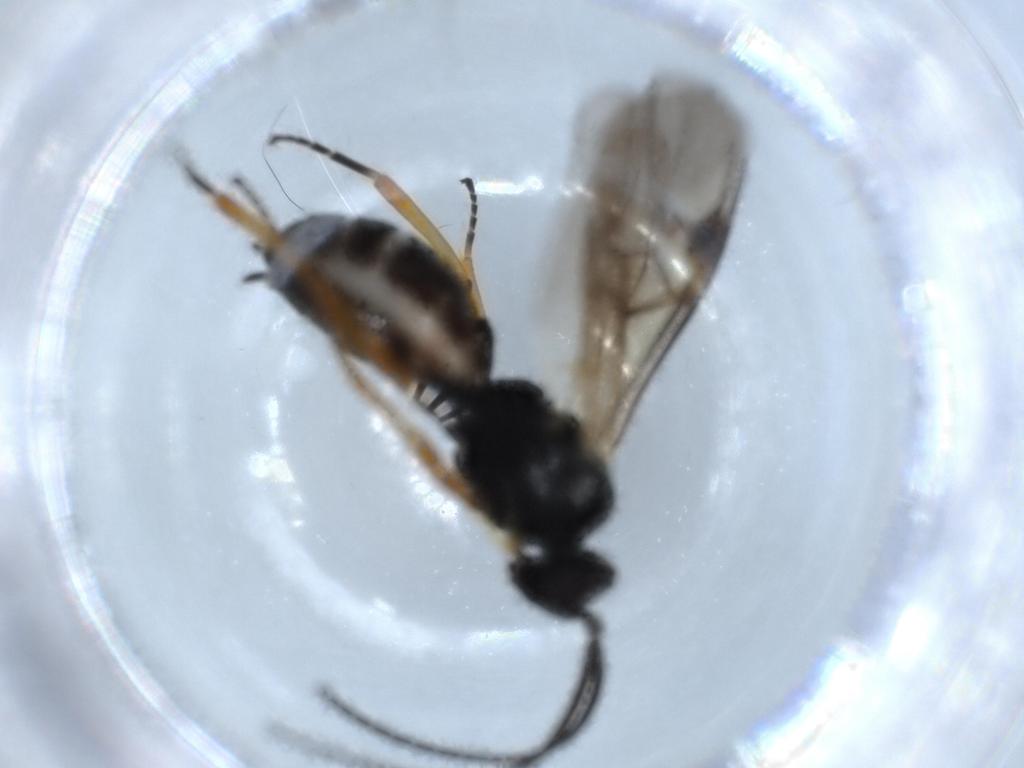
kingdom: Animalia
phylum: Arthropoda
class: Insecta
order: Hymenoptera
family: Braconidae
